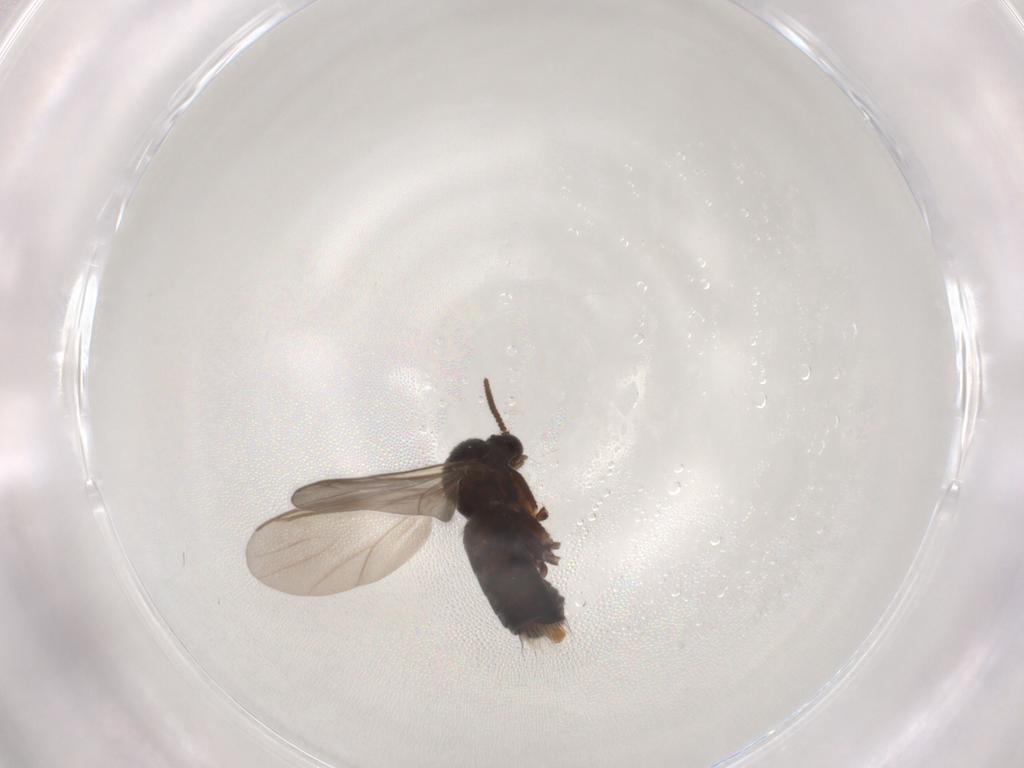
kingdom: Animalia
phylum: Arthropoda
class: Insecta
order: Diptera
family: Mycetophilidae
